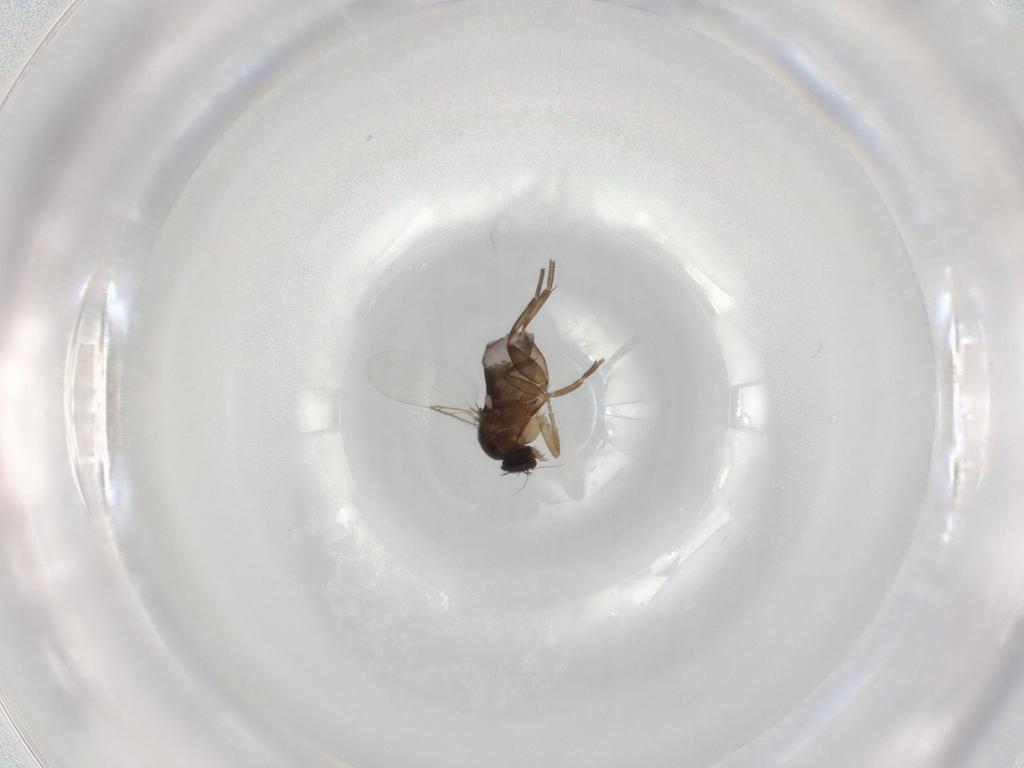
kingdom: Animalia
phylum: Arthropoda
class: Insecta
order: Diptera
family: Phoridae
